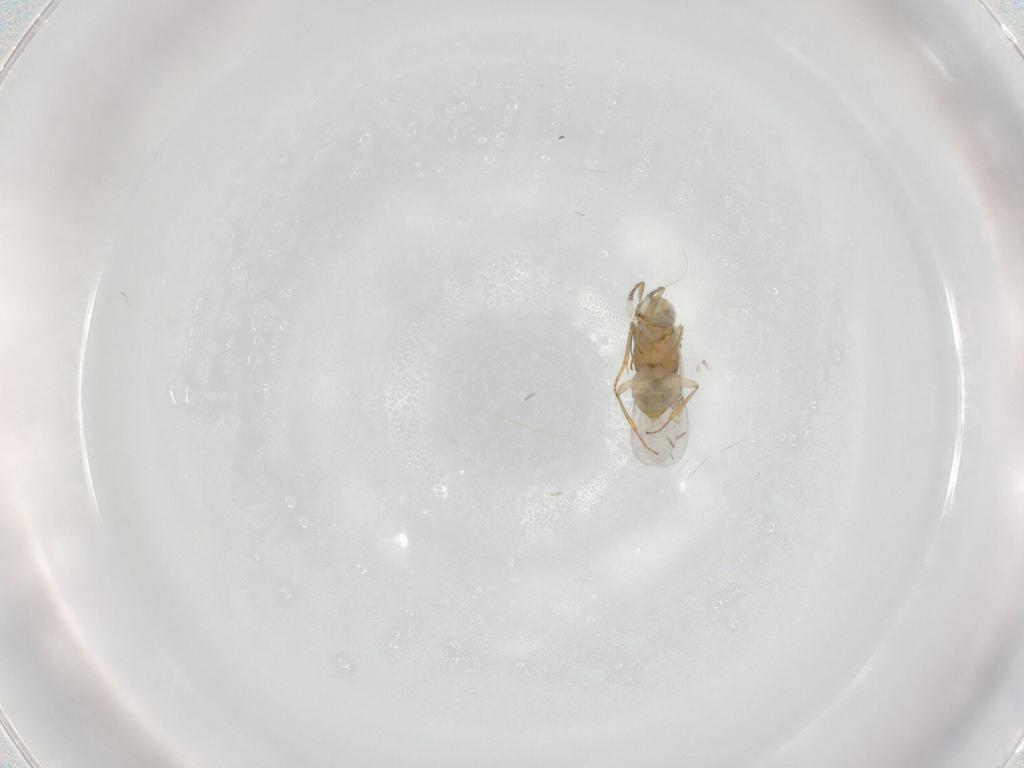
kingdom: Animalia
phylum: Arthropoda
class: Insecta
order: Hymenoptera
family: Encyrtidae
